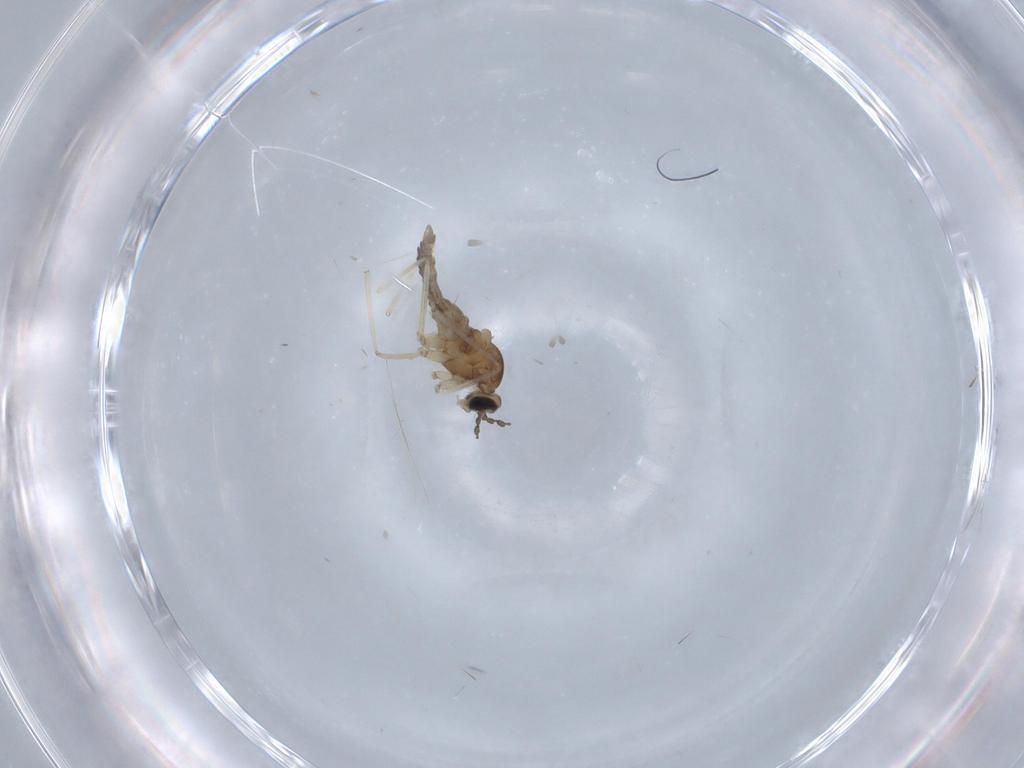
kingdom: Animalia
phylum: Arthropoda
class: Insecta
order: Diptera
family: Cecidomyiidae
